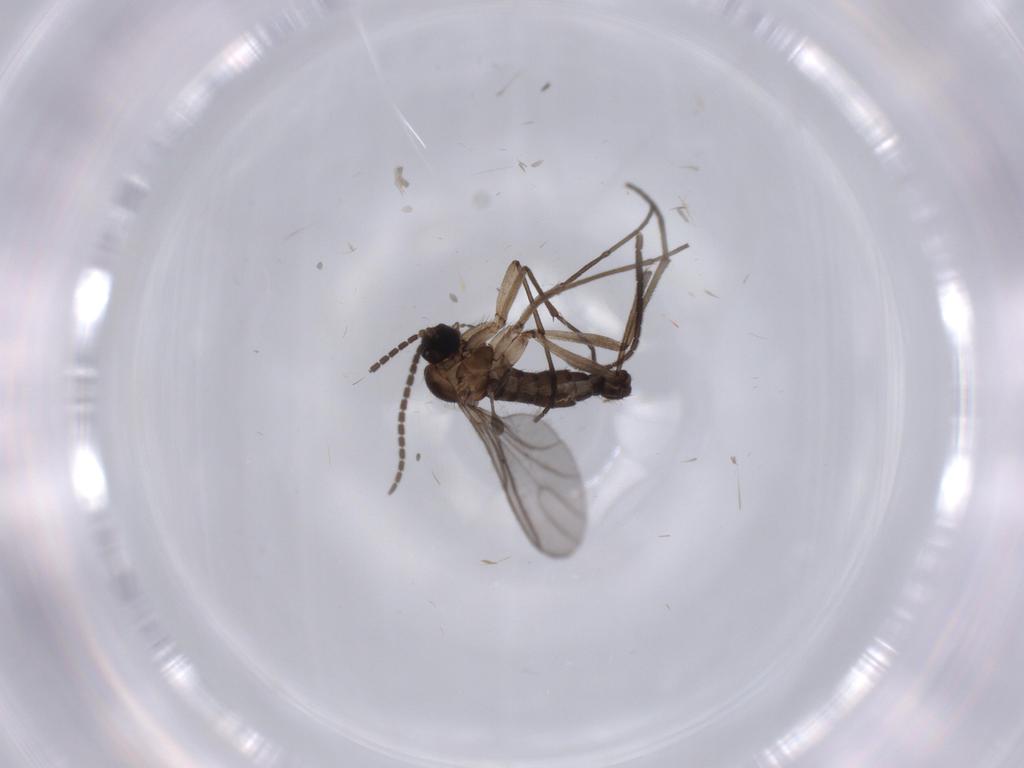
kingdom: Animalia
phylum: Arthropoda
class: Insecta
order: Diptera
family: Sciaridae
